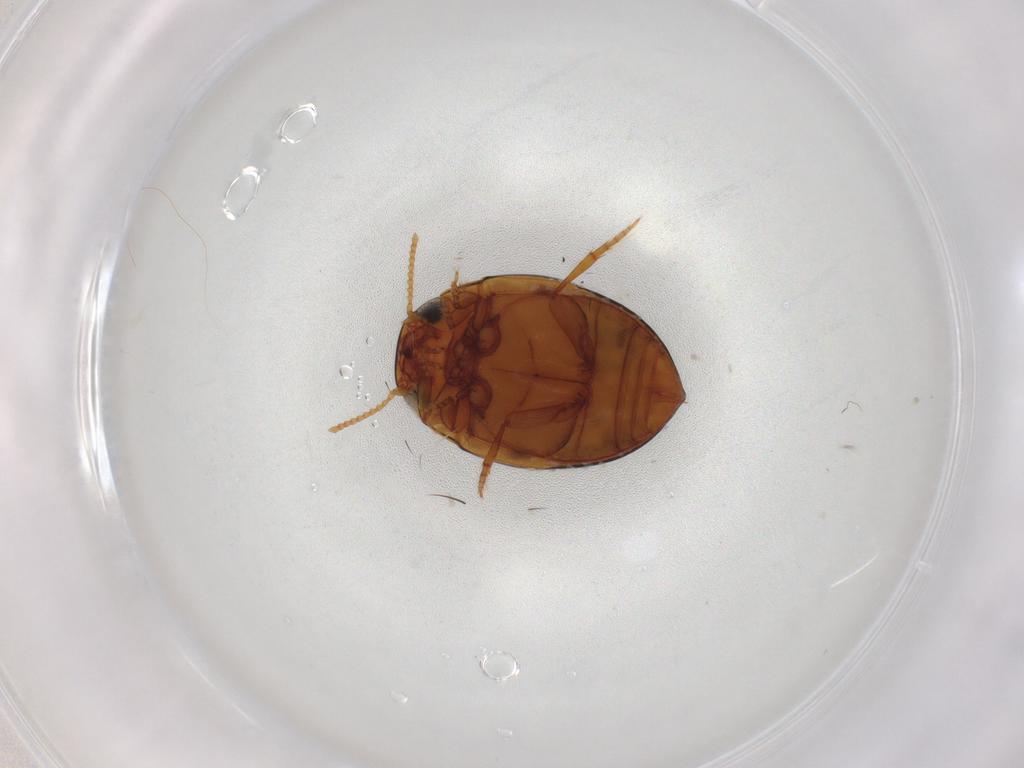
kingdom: Animalia
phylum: Arthropoda
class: Insecta
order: Coleoptera
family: Dytiscidae
